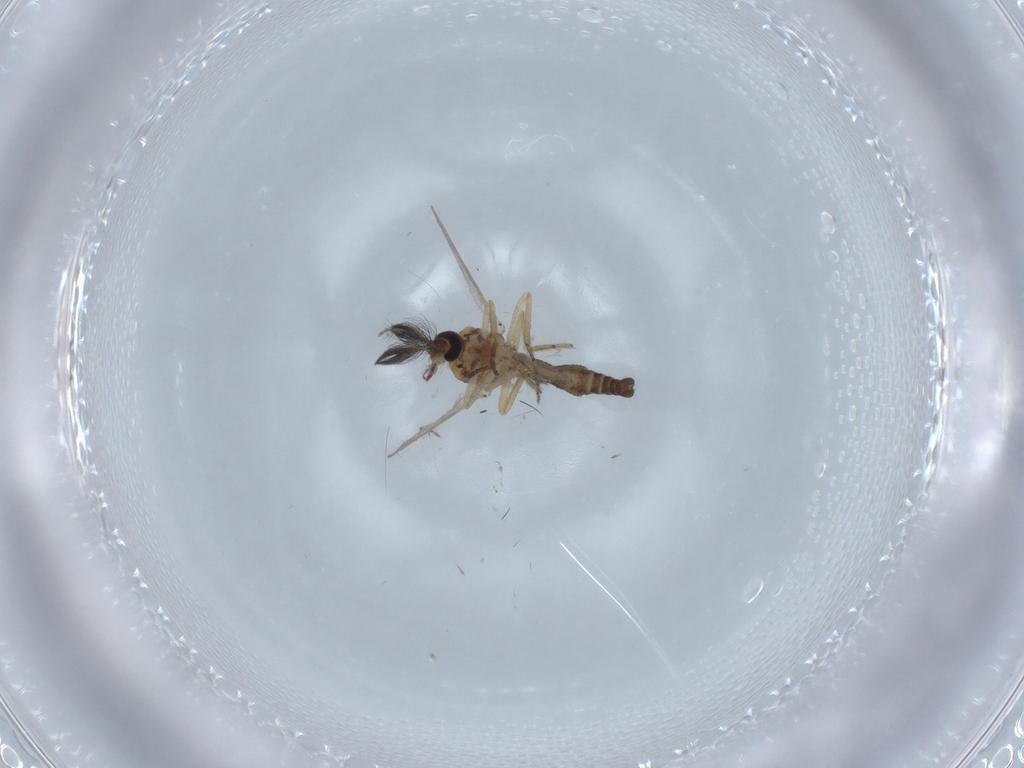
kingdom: Animalia
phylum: Arthropoda
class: Insecta
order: Diptera
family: Ceratopogonidae
